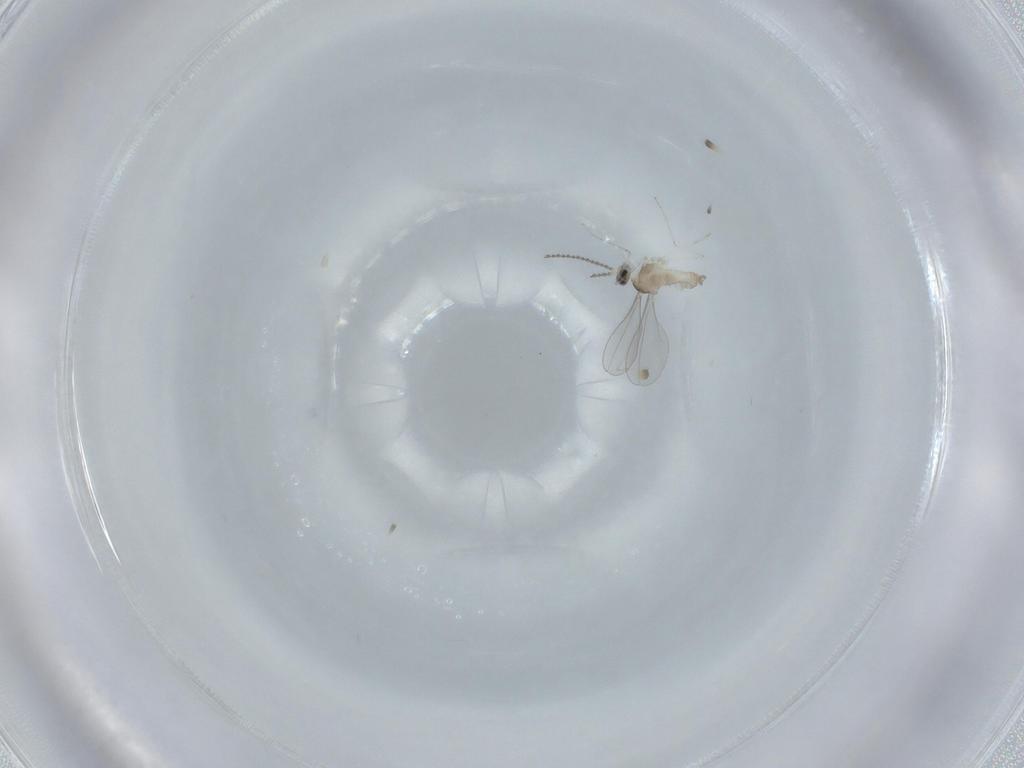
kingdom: Animalia
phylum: Arthropoda
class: Insecta
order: Diptera
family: Cecidomyiidae
